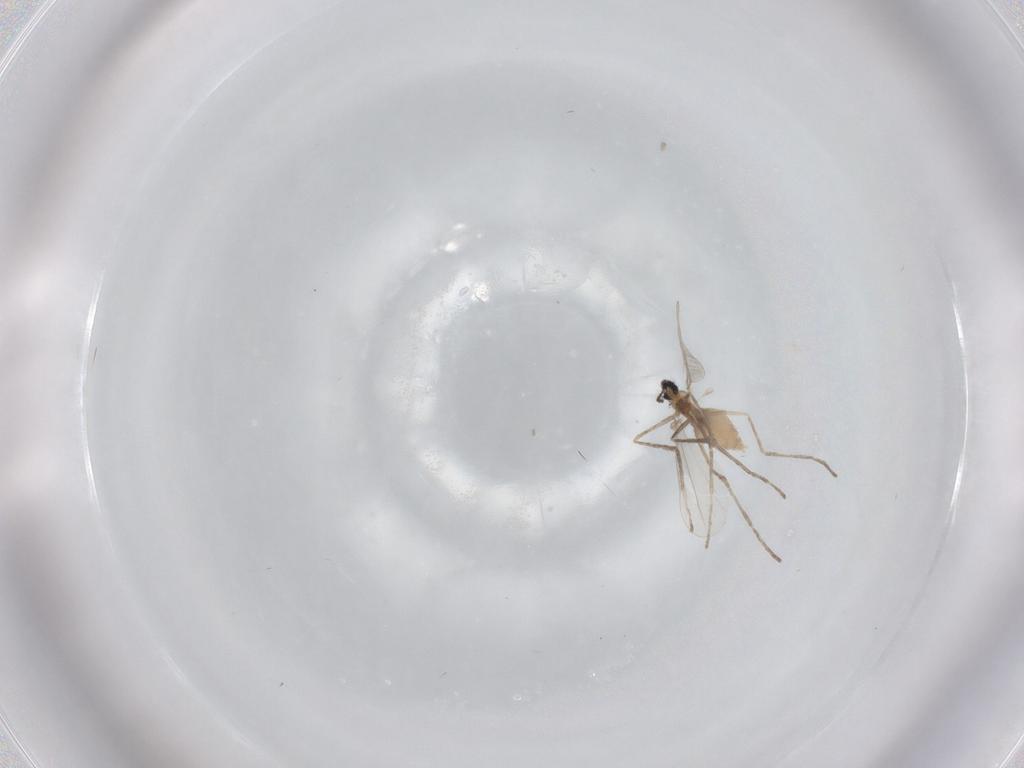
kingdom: Animalia
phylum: Arthropoda
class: Insecta
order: Diptera
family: Cecidomyiidae
